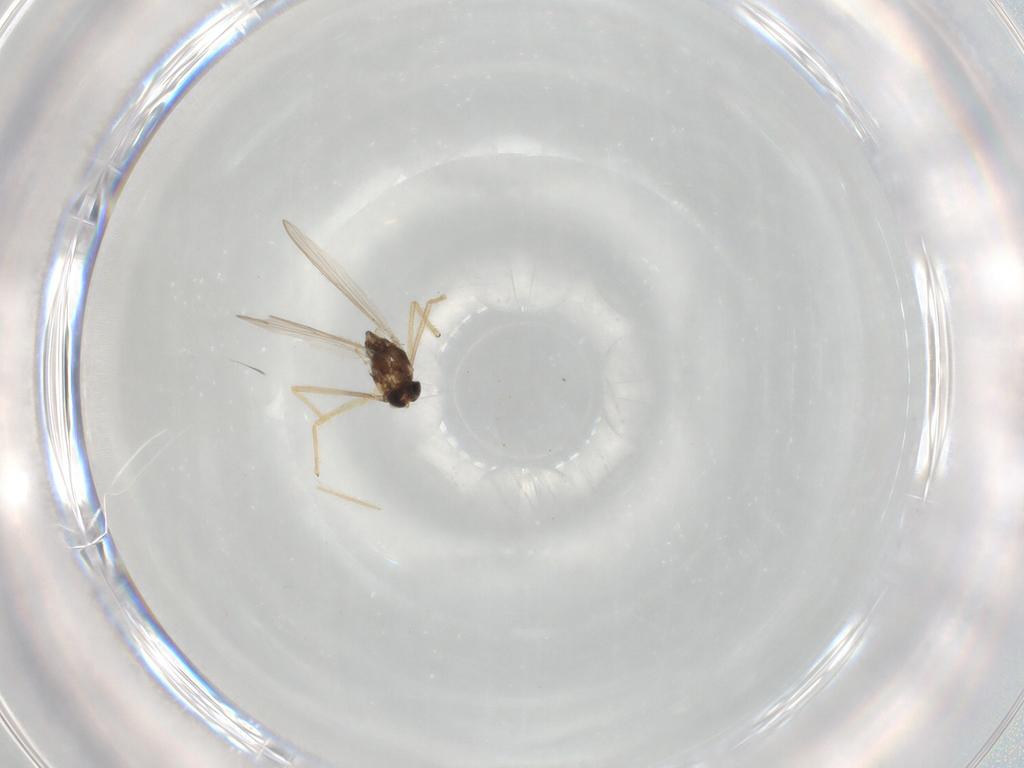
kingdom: Animalia
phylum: Arthropoda
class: Insecta
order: Diptera
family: Chironomidae
